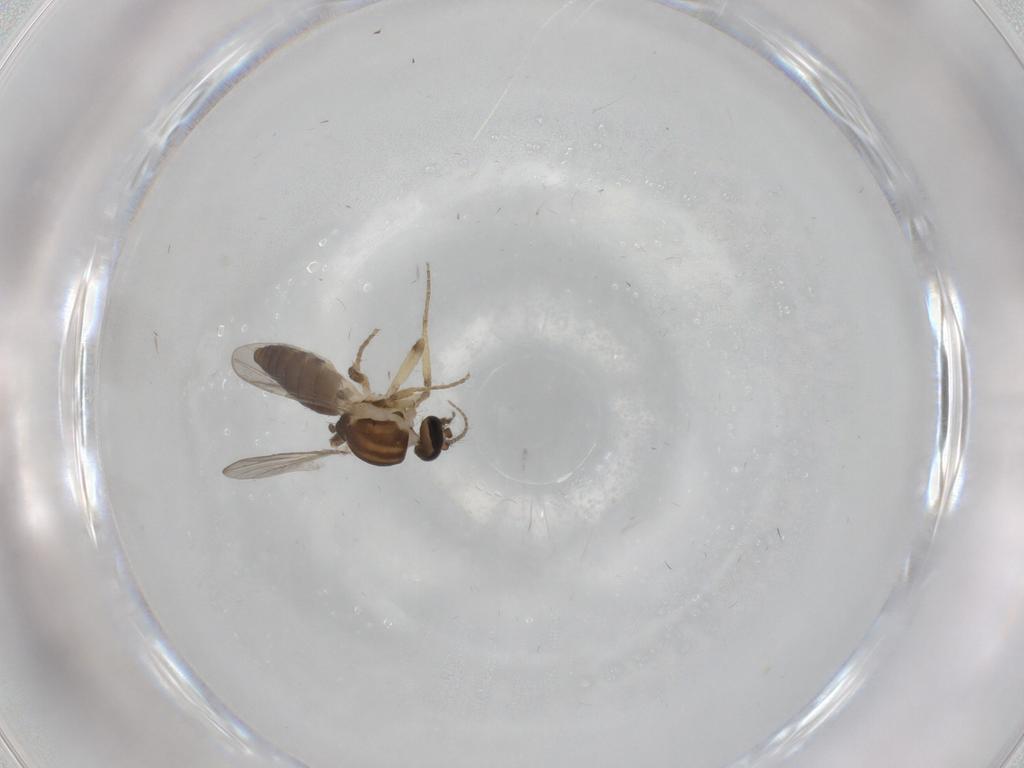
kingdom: Animalia
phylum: Arthropoda
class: Insecta
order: Diptera
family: Ceratopogonidae
